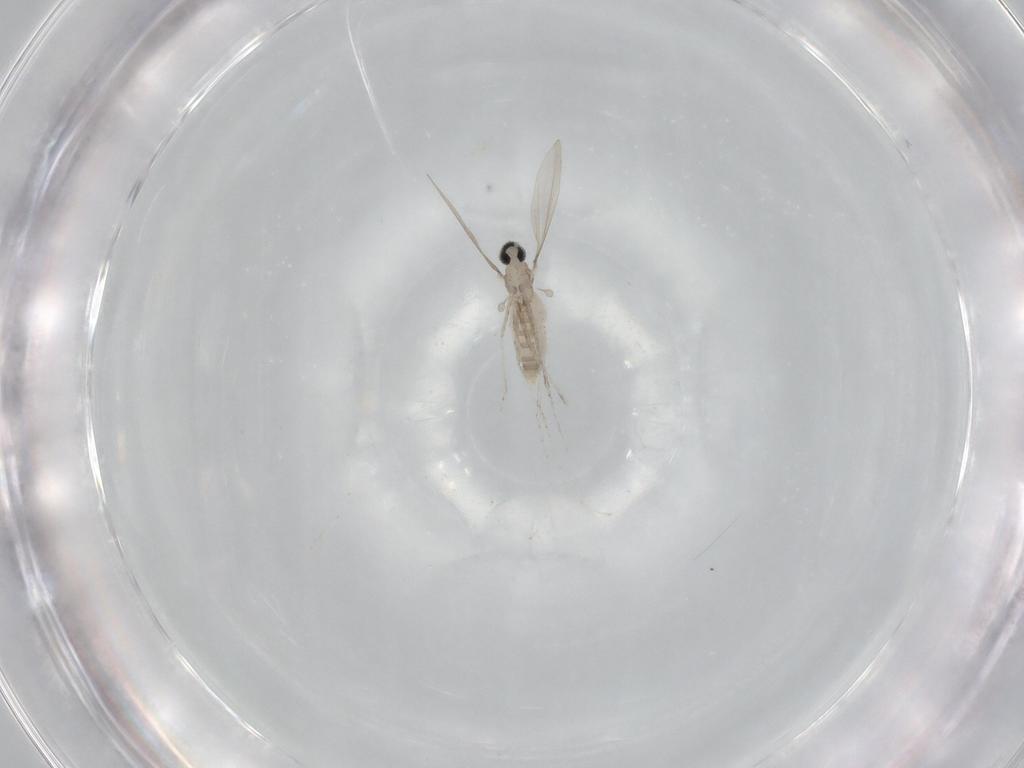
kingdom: Animalia
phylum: Arthropoda
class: Insecta
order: Diptera
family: Cecidomyiidae
